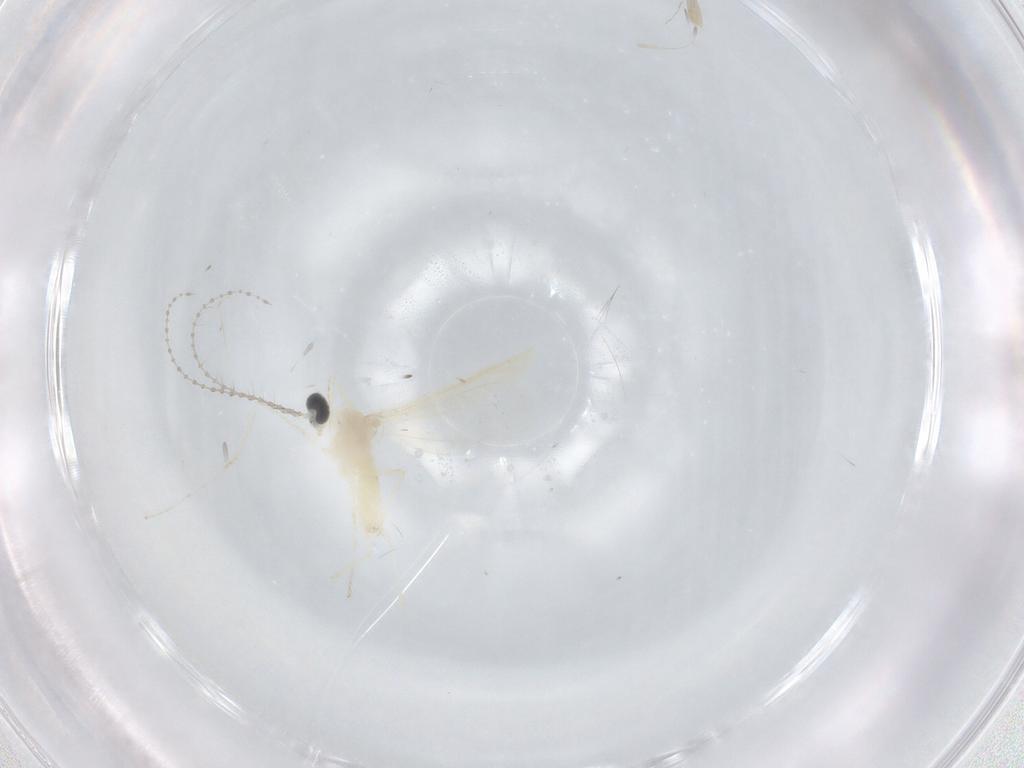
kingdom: Animalia
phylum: Arthropoda
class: Insecta
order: Diptera
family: Cecidomyiidae
